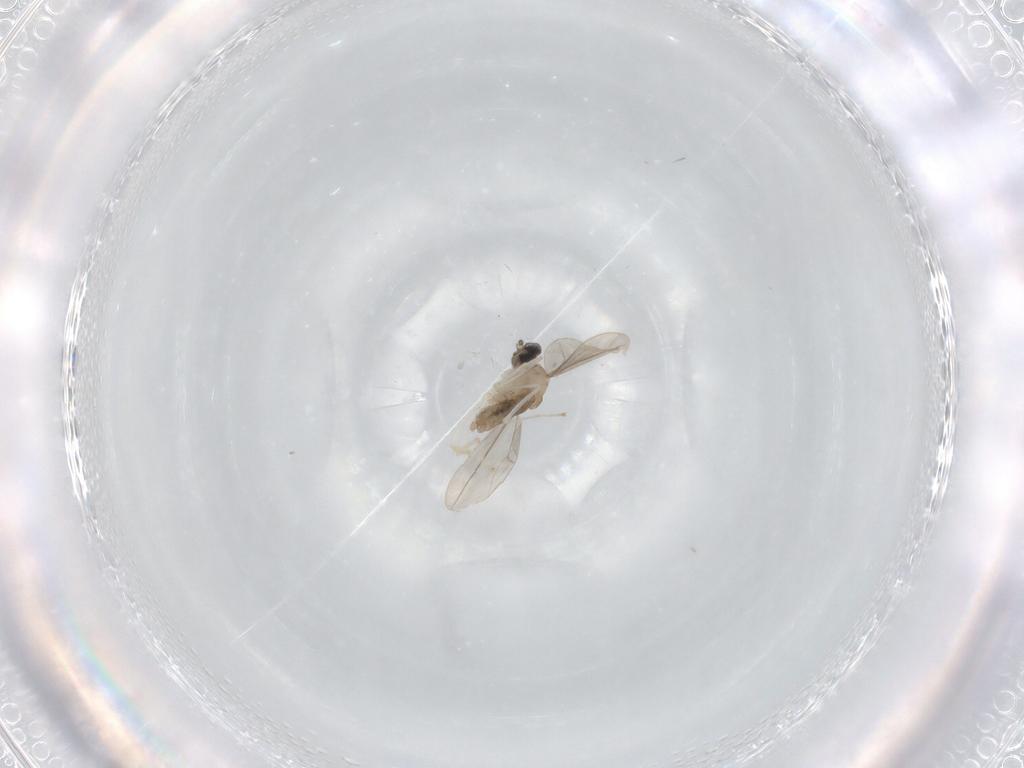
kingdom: Animalia
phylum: Arthropoda
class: Insecta
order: Diptera
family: Cecidomyiidae
